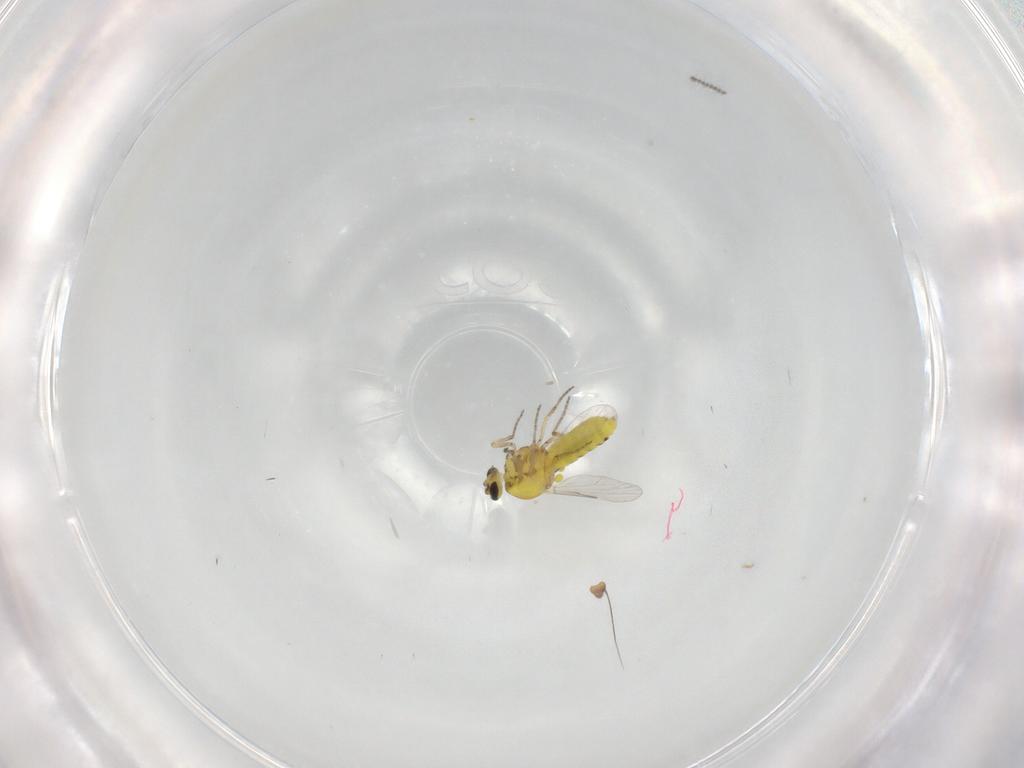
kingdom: Animalia
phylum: Arthropoda
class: Insecta
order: Diptera
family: Ceratopogonidae
